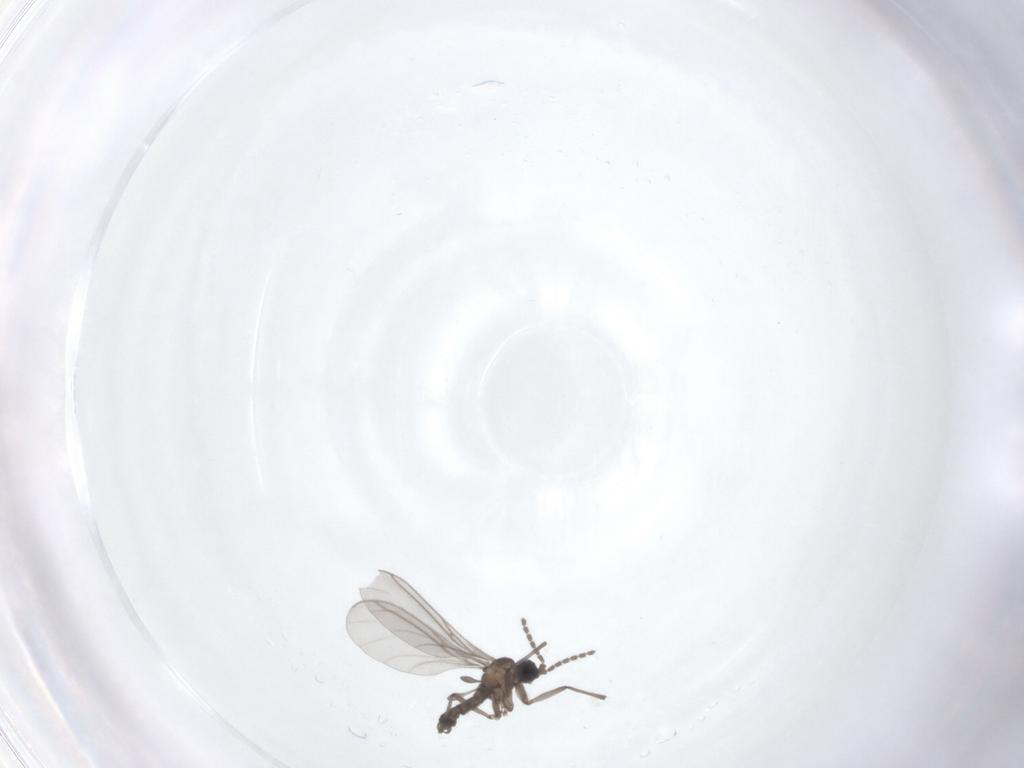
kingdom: Animalia
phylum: Arthropoda
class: Insecta
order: Diptera
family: Sciaridae
